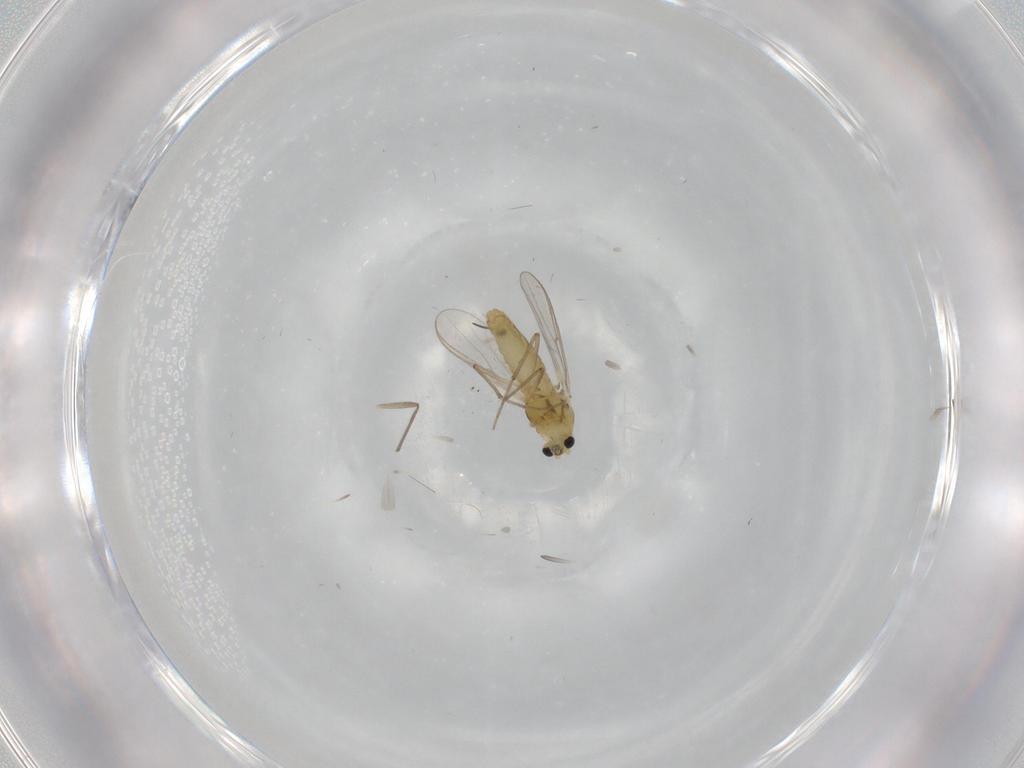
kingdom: Animalia
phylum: Arthropoda
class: Insecta
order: Diptera
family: Chironomidae
